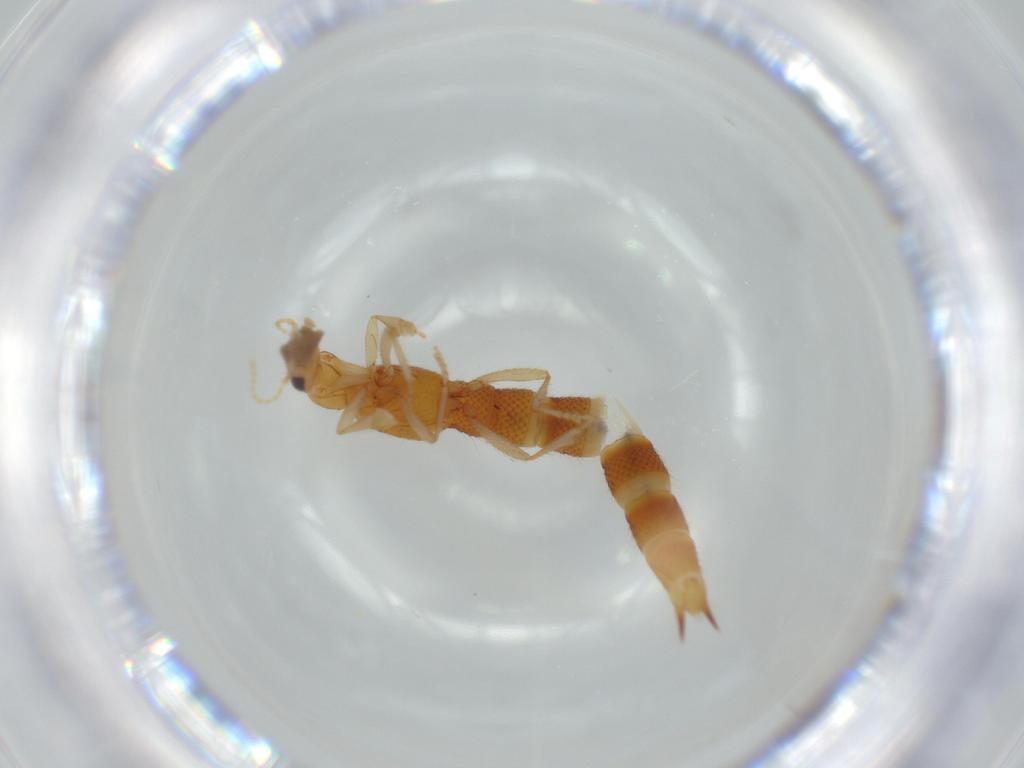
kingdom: Animalia
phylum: Arthropoda
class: Insecta
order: Coleoptera
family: Staphylinidae
